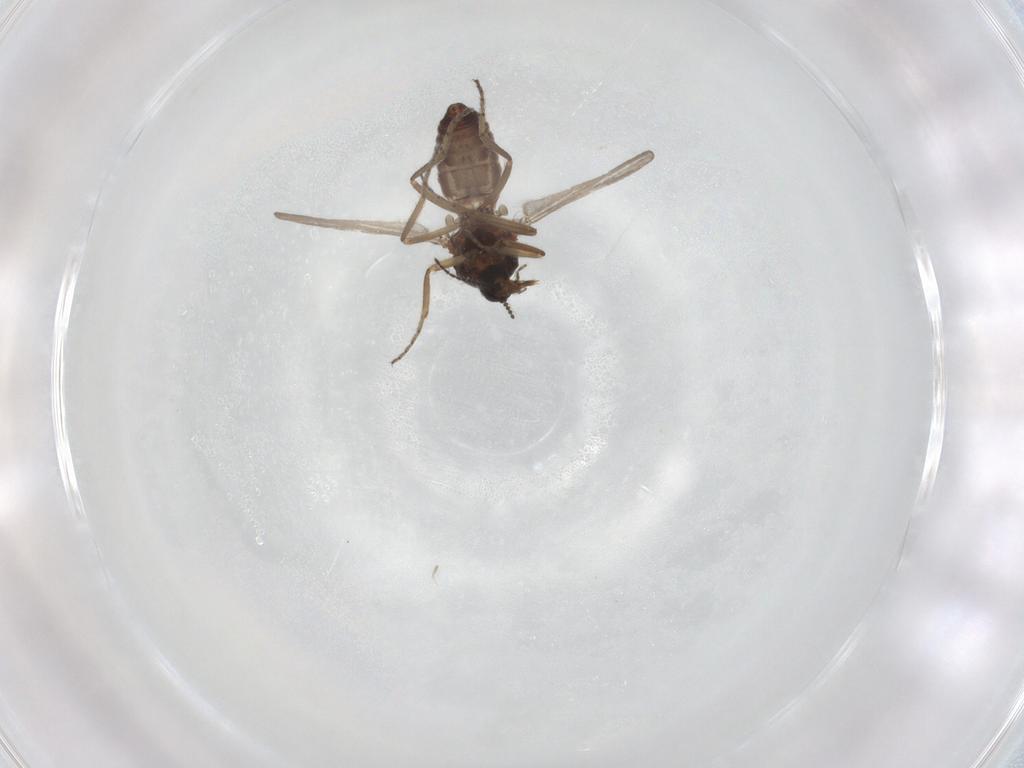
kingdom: Animalia
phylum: Arthropoda
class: Insecta
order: Diptera
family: Ceratopogonidae
